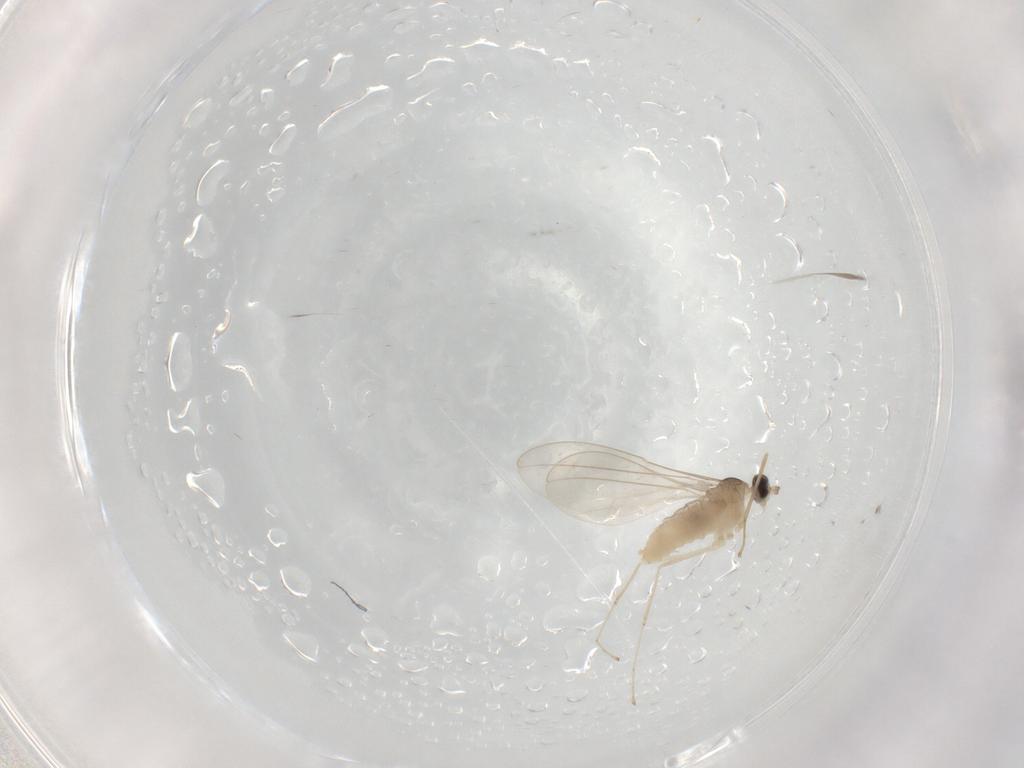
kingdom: Animalia
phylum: Arthropoda
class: Insecta
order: Diptera
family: Cecidomyiidae
